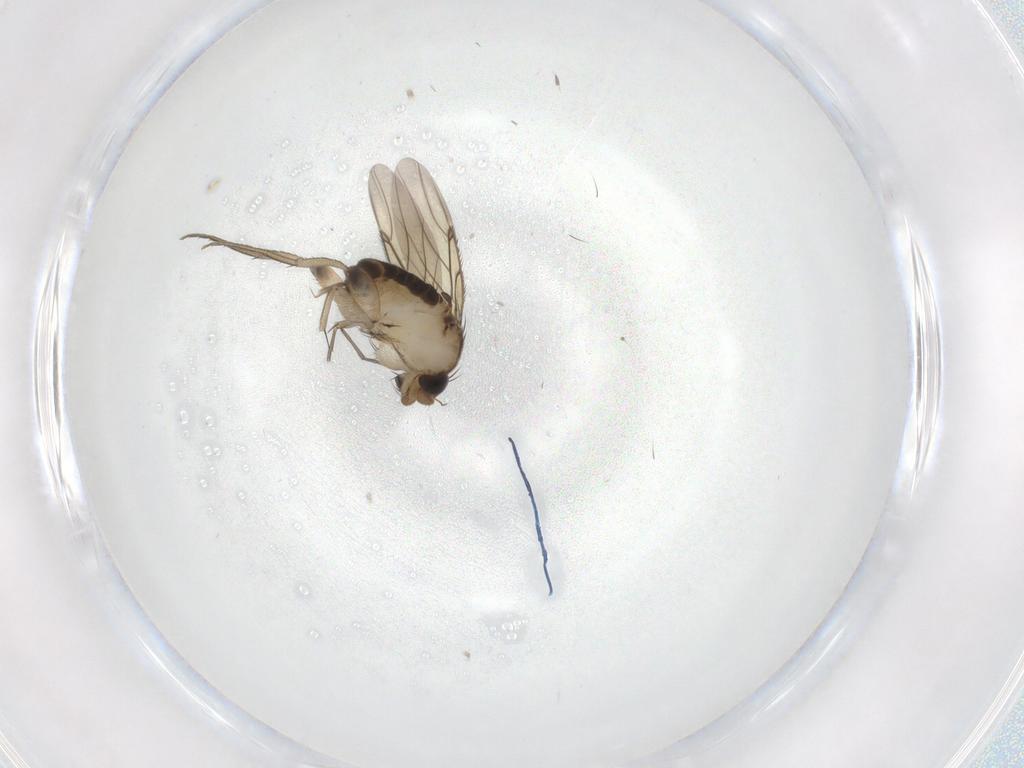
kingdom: Animalia
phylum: Arthropoda
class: Insecta
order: Diptera
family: Phoridae
